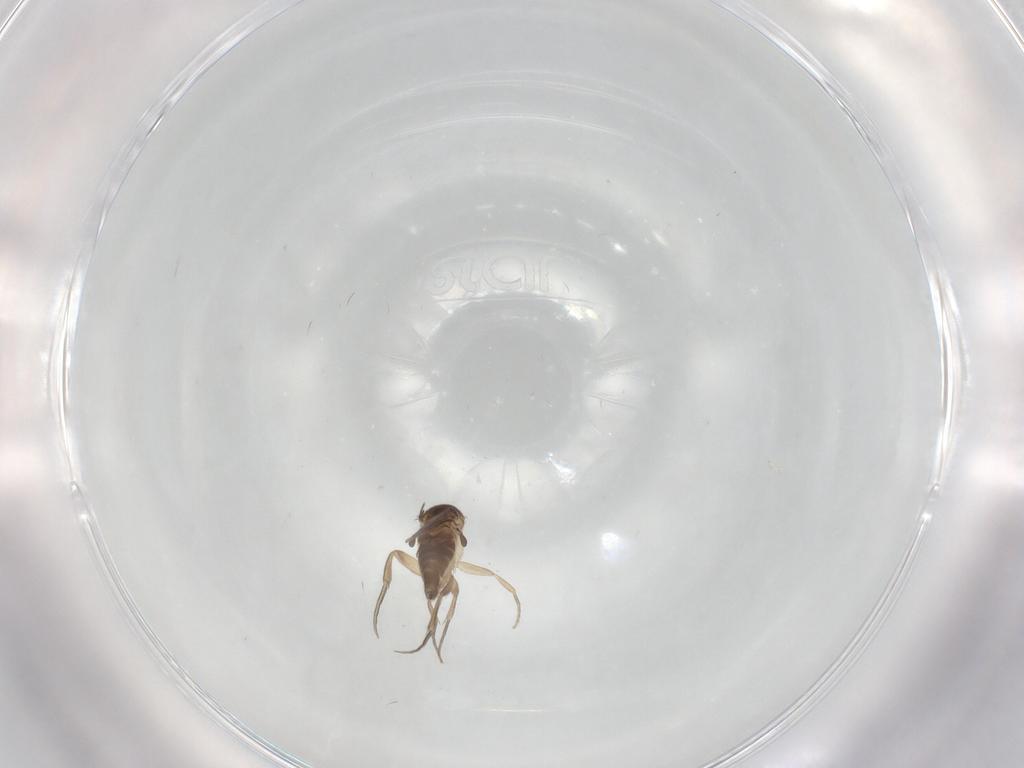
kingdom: Animalia
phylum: Arthropoda
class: Insecta
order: Diptera
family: Phoridae
